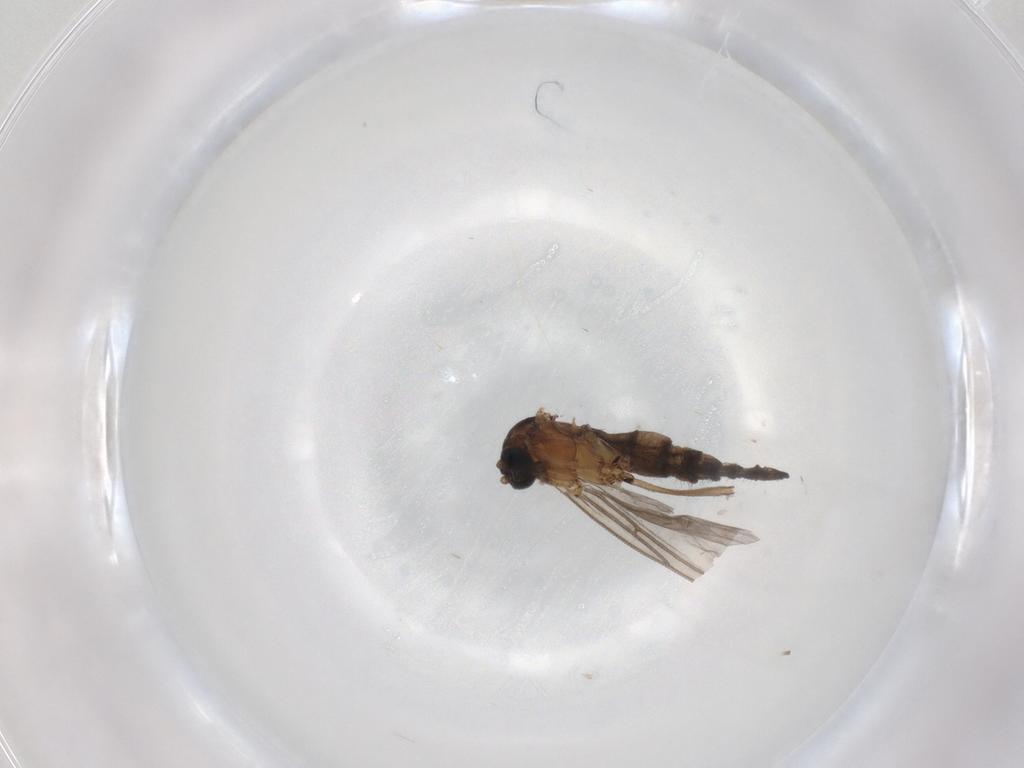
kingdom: Animalia
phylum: Arthropoda
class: Insecta
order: Diptera
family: Sciaridae
